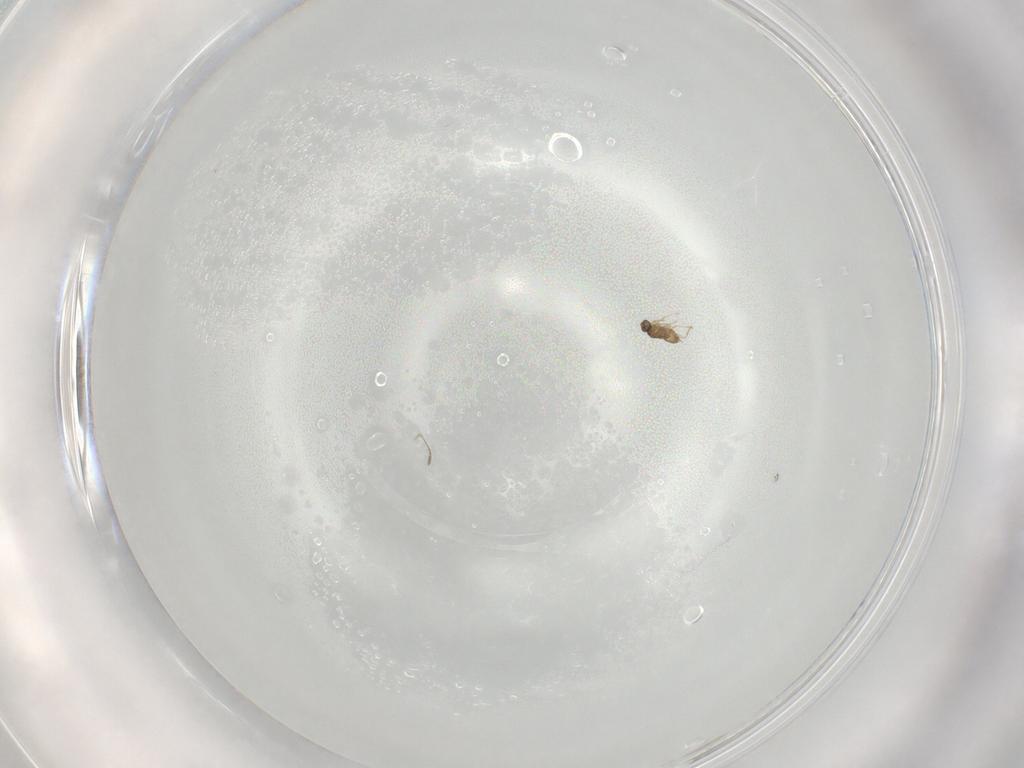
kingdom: Animalia
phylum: Arthropoda
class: Insecta
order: Hymenoptera
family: Mymaridae
